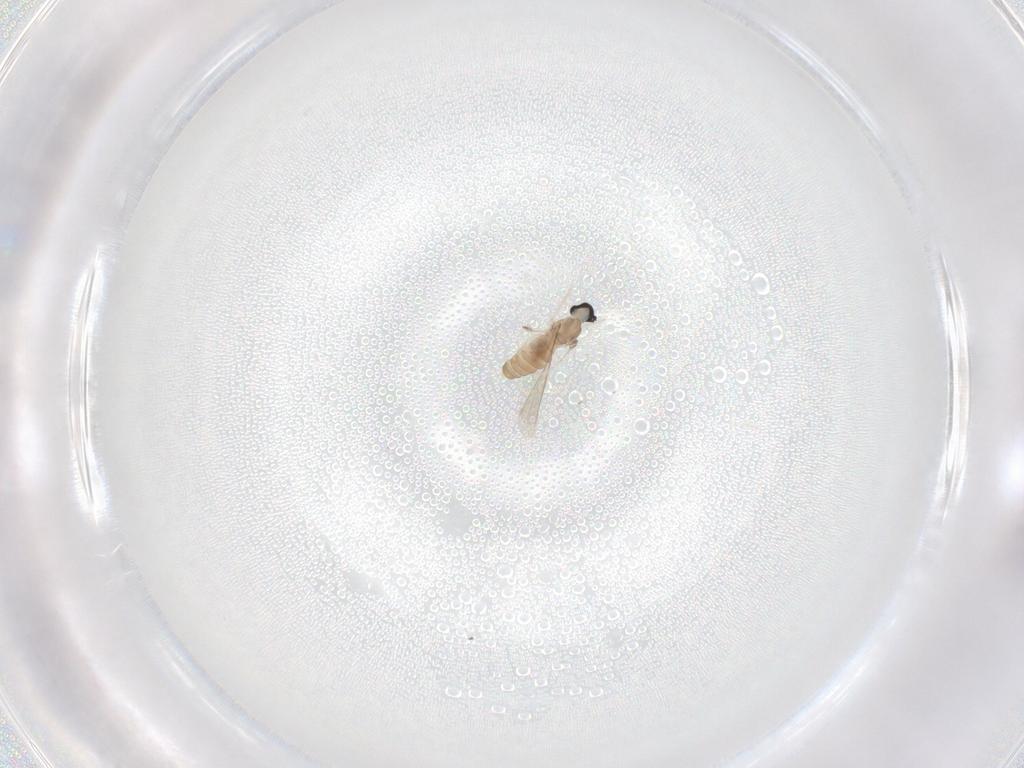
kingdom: Animalia
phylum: Arthropoda
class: Insecta
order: Diptera
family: Cecidomyiidae
